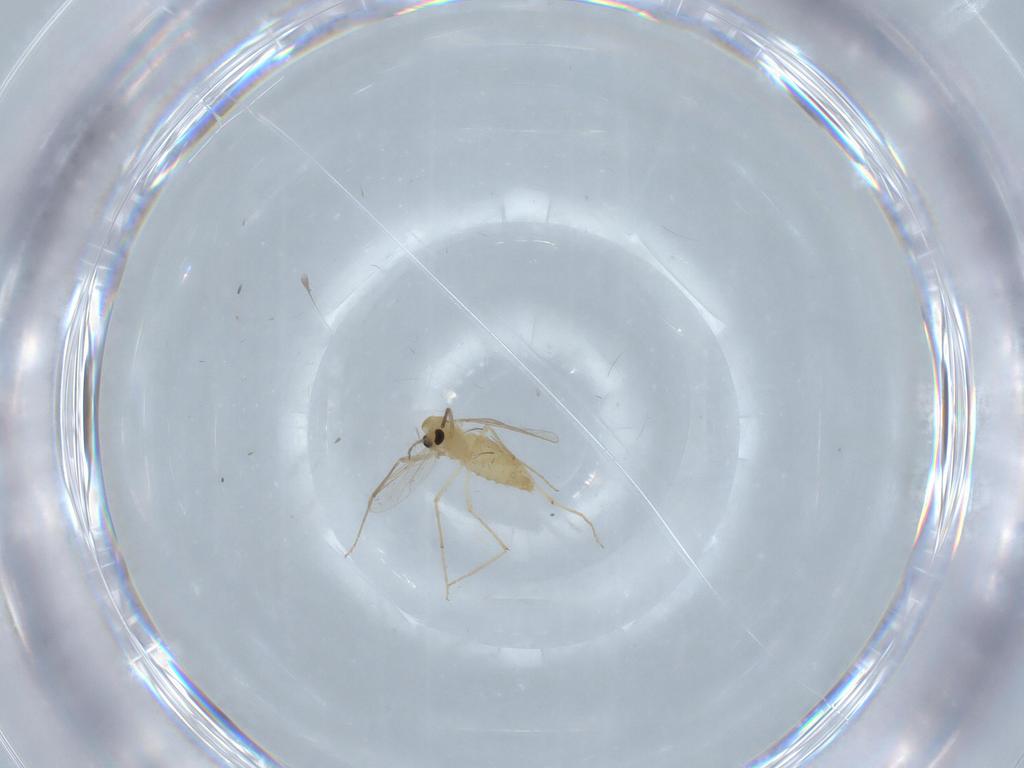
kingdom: Animalia
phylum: Arthropoda
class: Insecta
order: Diptera
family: Chironomidae
